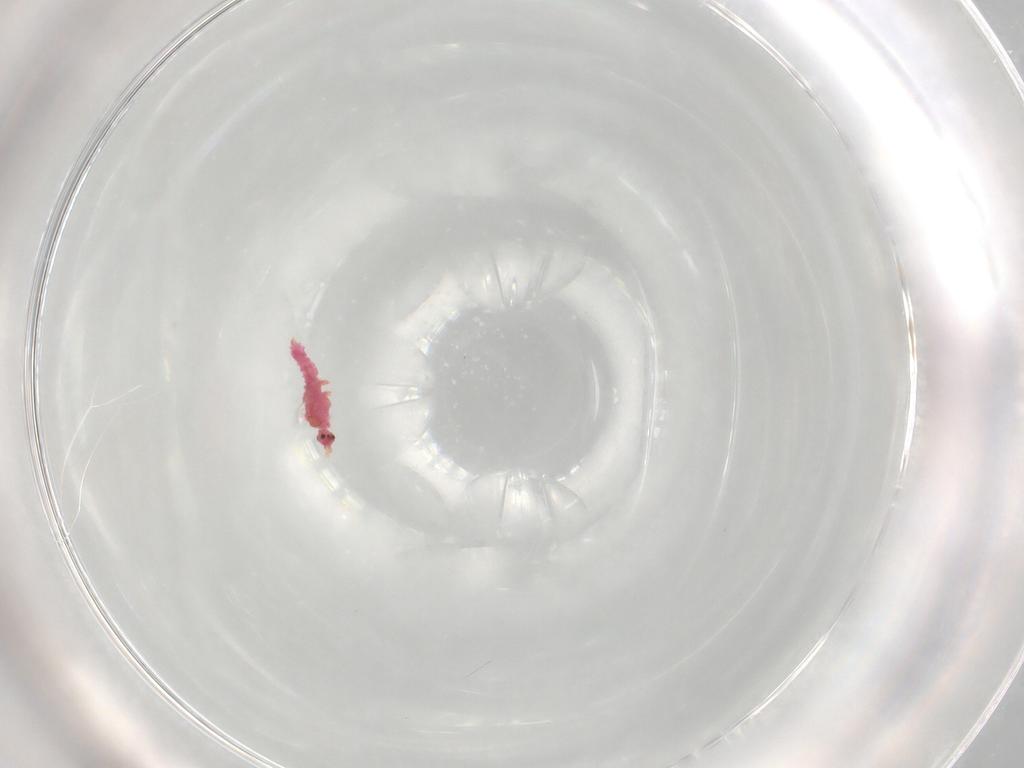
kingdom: Animalia
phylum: Arthropoda
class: Insecta
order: Hemiptera
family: Pseudococcidae
